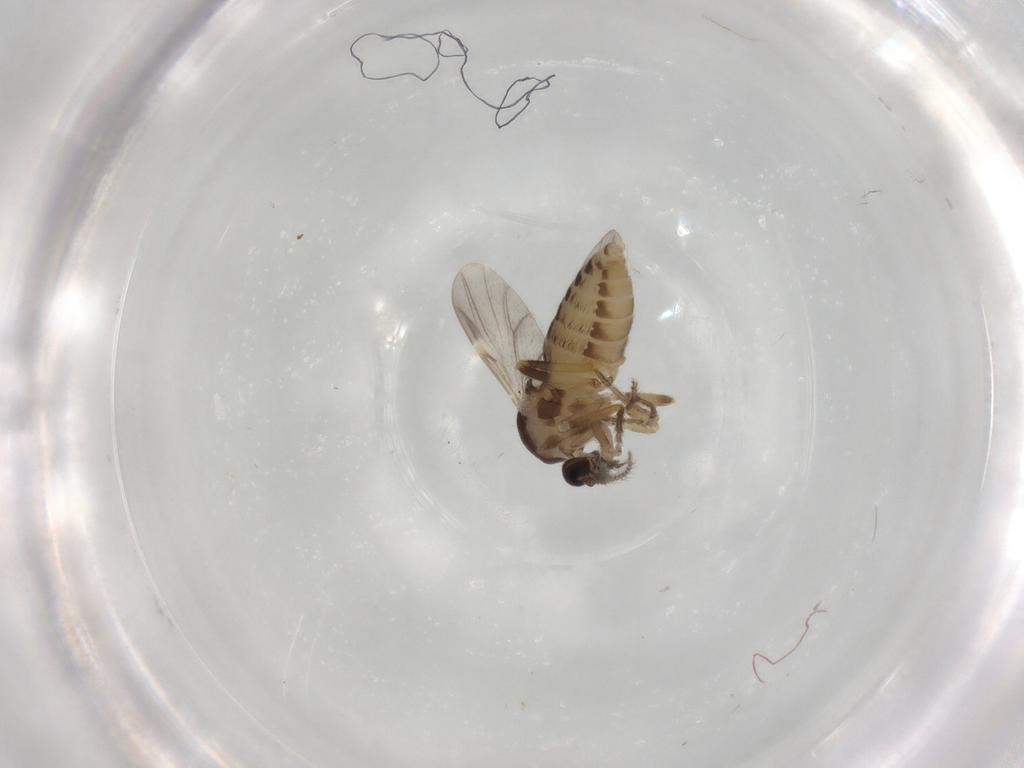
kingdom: Animalia
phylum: Arthropoda
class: Insecta
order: Diptera
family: Ceratopogonidae
